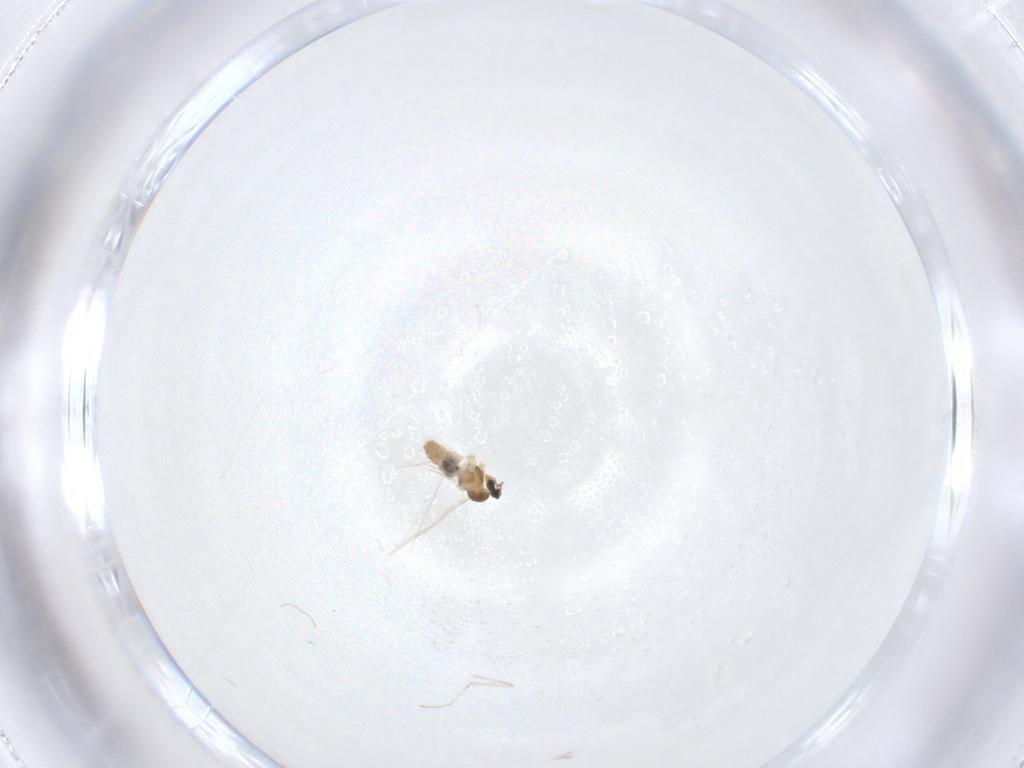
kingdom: Animalia
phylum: Arthropoda
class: Insecta
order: Diptera
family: Cecidomyiidae
